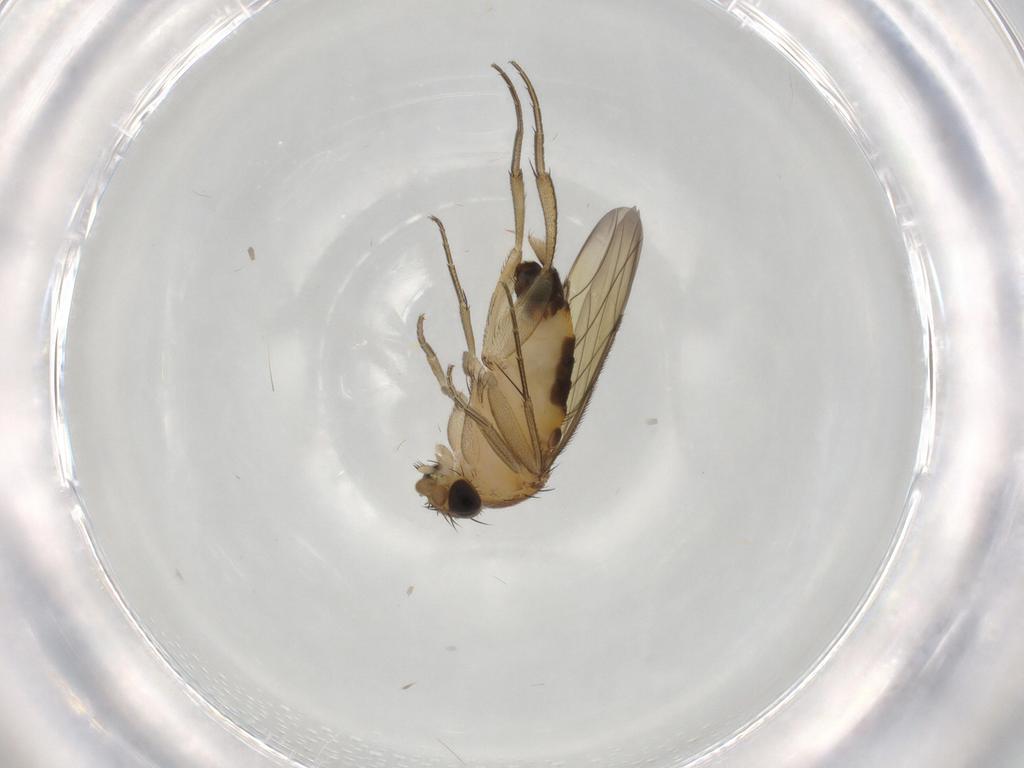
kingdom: Animalia
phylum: Arthropoda
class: Insecta
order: Diptera
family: Phoridae
